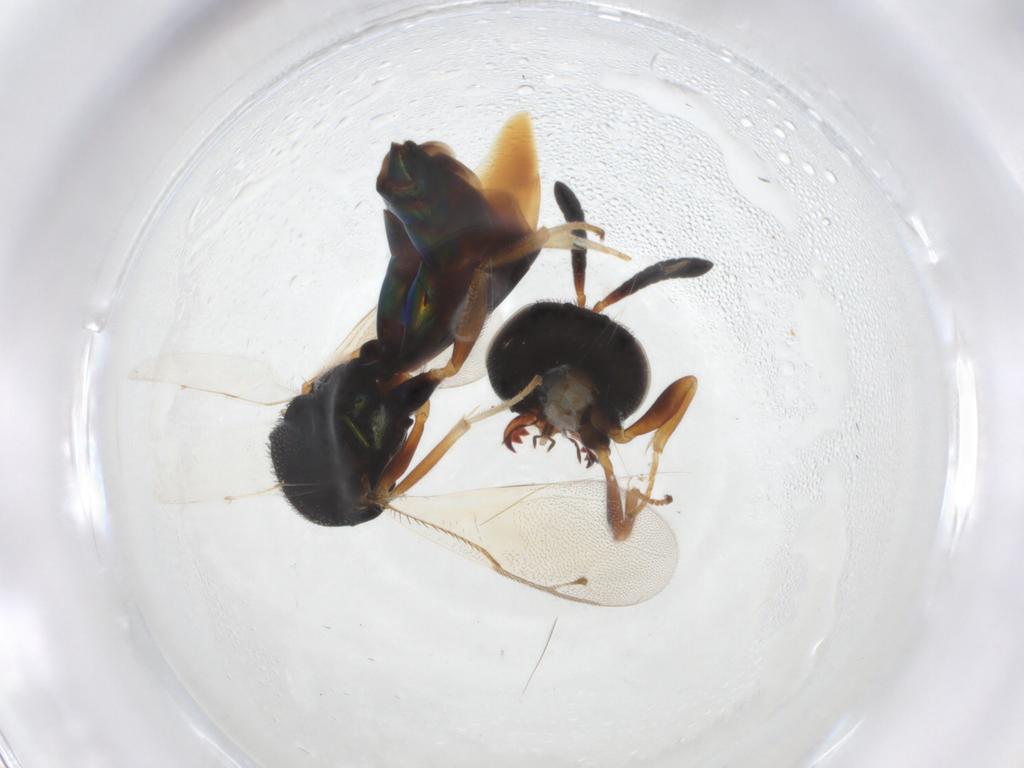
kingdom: Animalia
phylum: Arthropoda
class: Insecta
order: Hymenoptera
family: Pteromalidae
